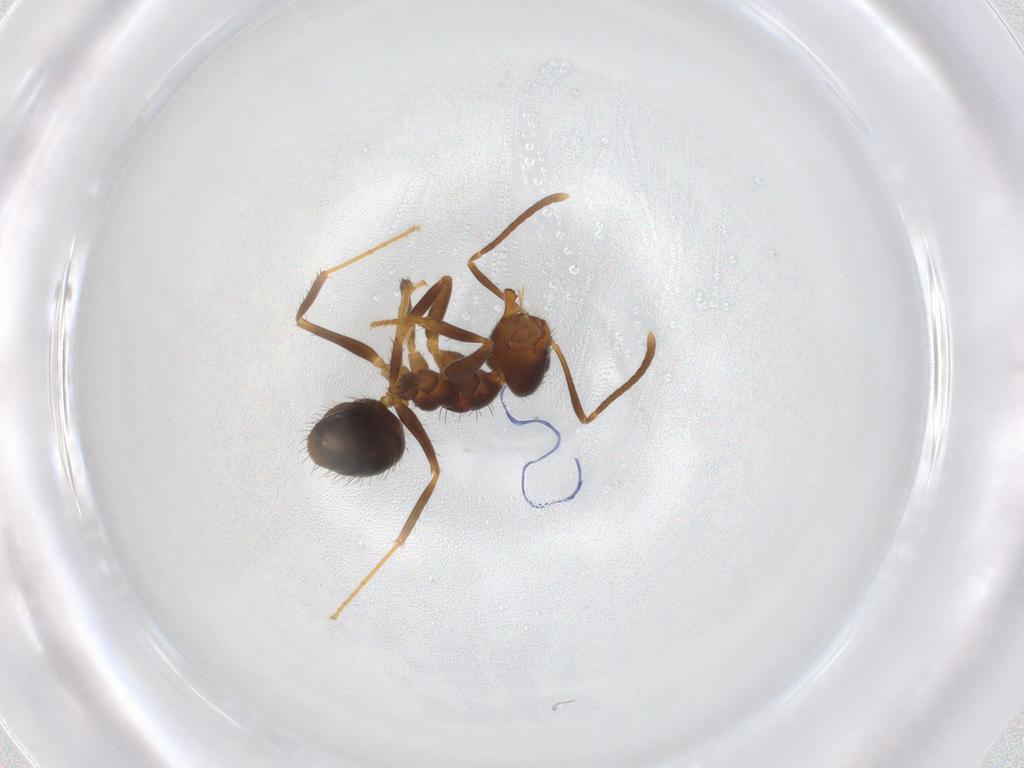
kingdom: Animalia
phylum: Arthropoda
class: Insecta
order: Hymenoptera
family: Formicidae
